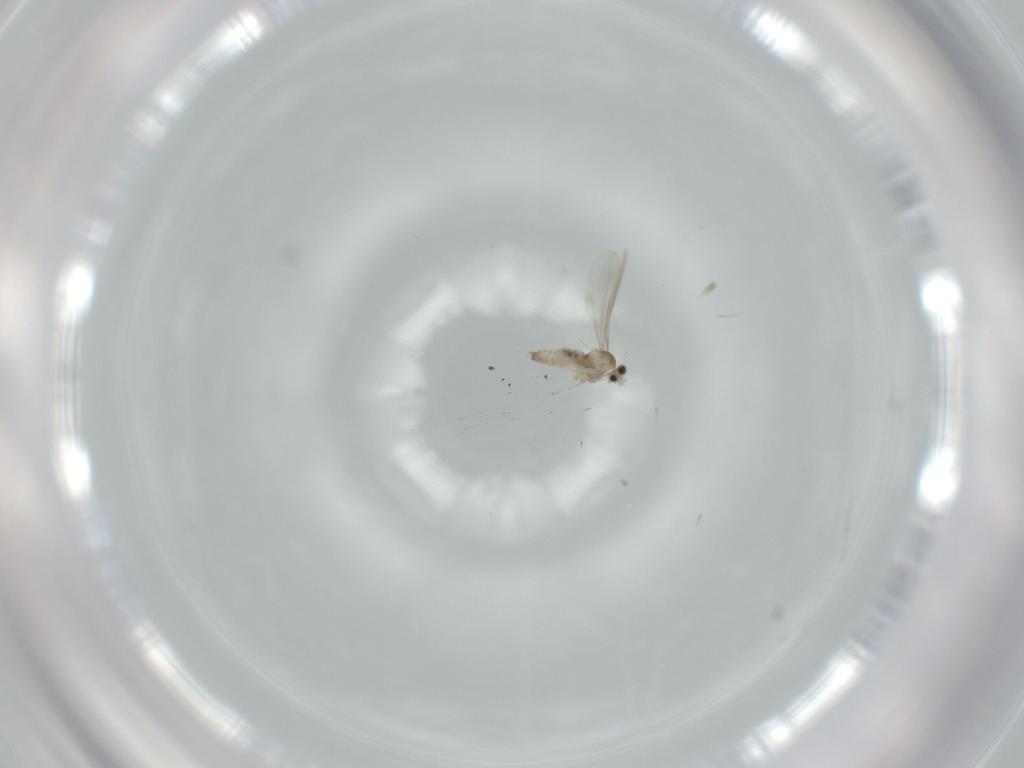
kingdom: Animalia
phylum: Arthropoda
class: Insecta
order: Diptera
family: Cecidomyiidae
